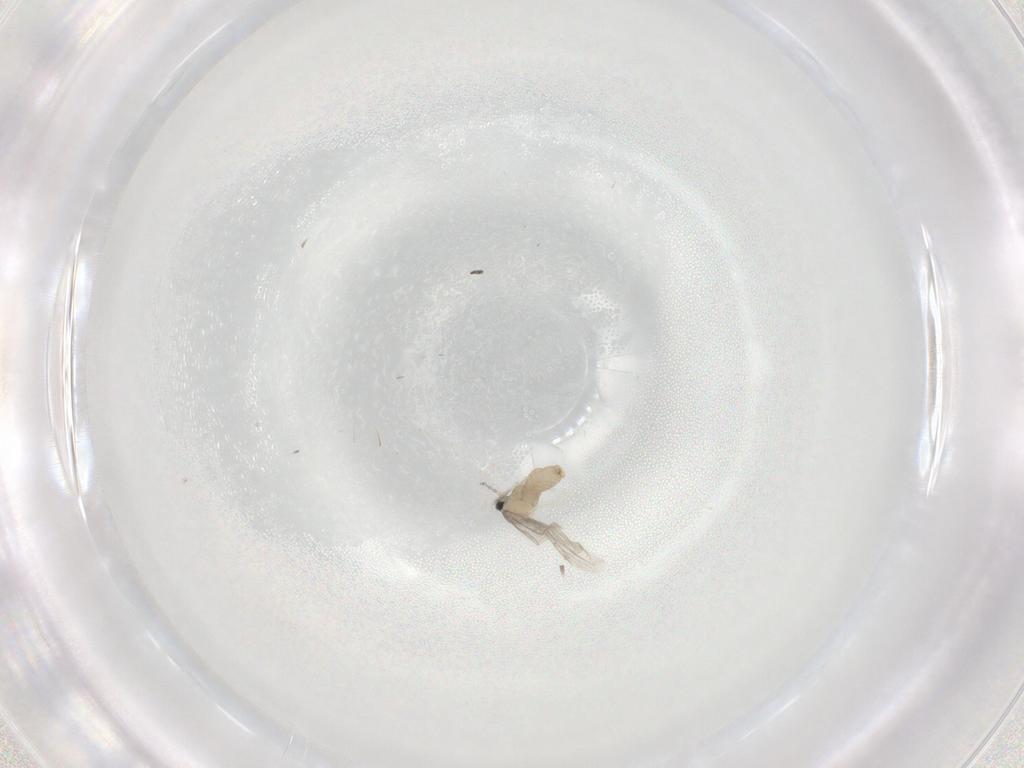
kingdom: Animalia
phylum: Arthropoda
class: Insecta
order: Diptera
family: Cecidomyiidae
